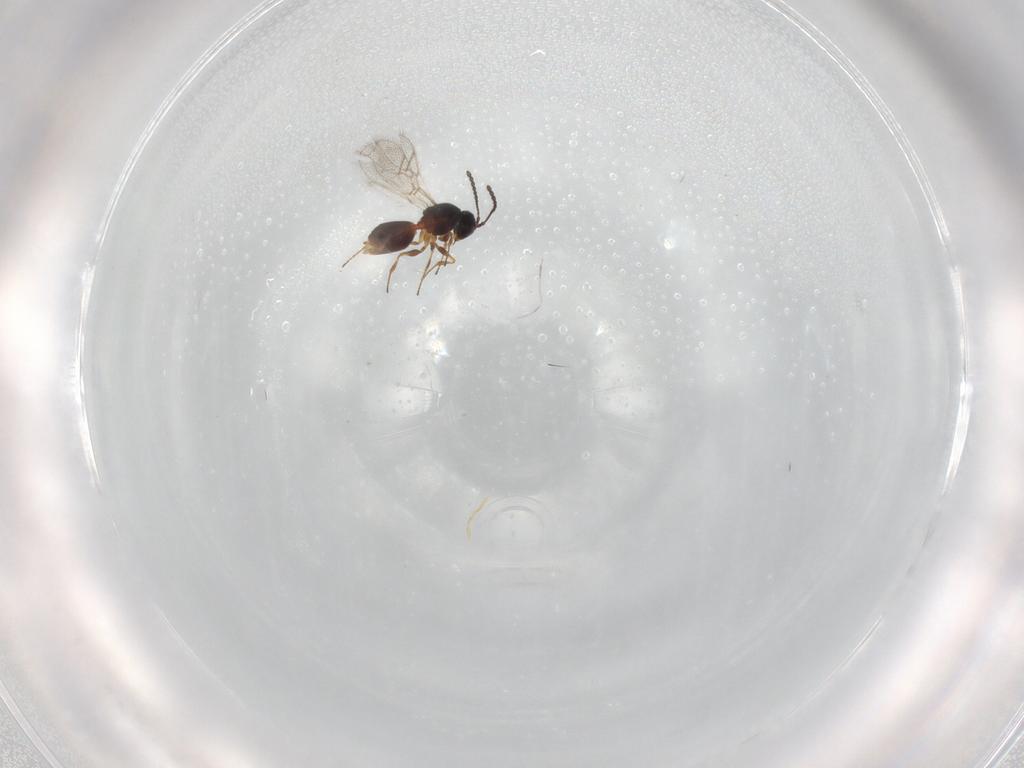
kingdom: Animalia
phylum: Arthropoda
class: Insecta
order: Hymenoptera
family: Figitidae
